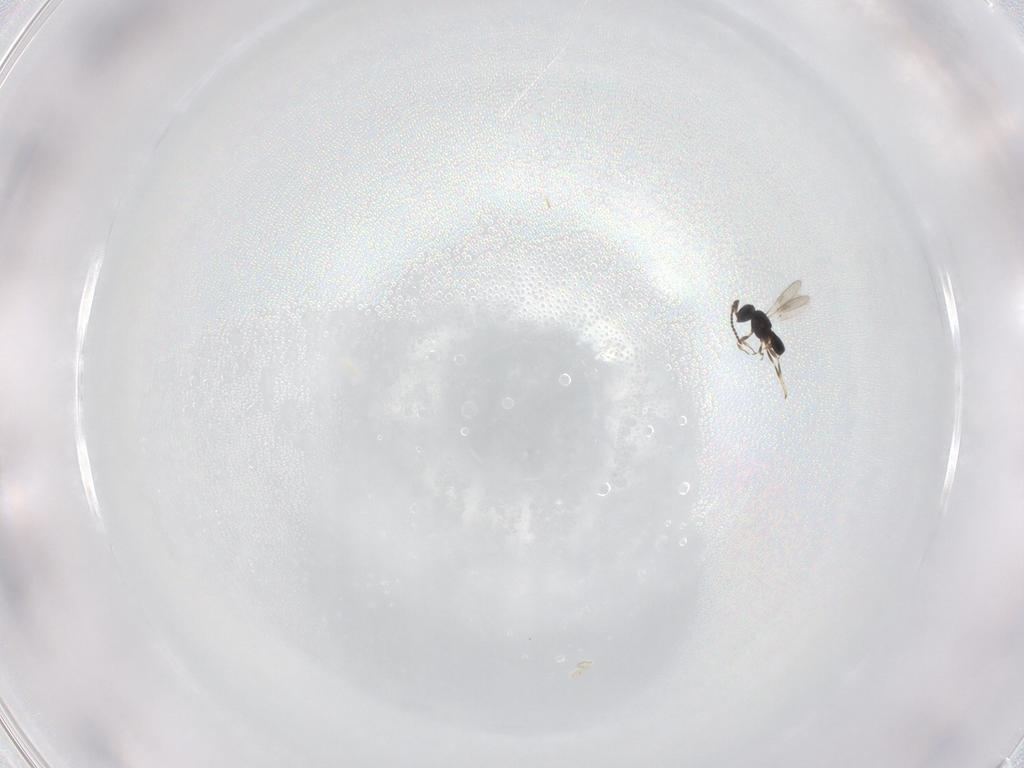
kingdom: Animalia
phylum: Arthropoda
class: Insecta
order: Hymenoptera
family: Scelionidae
